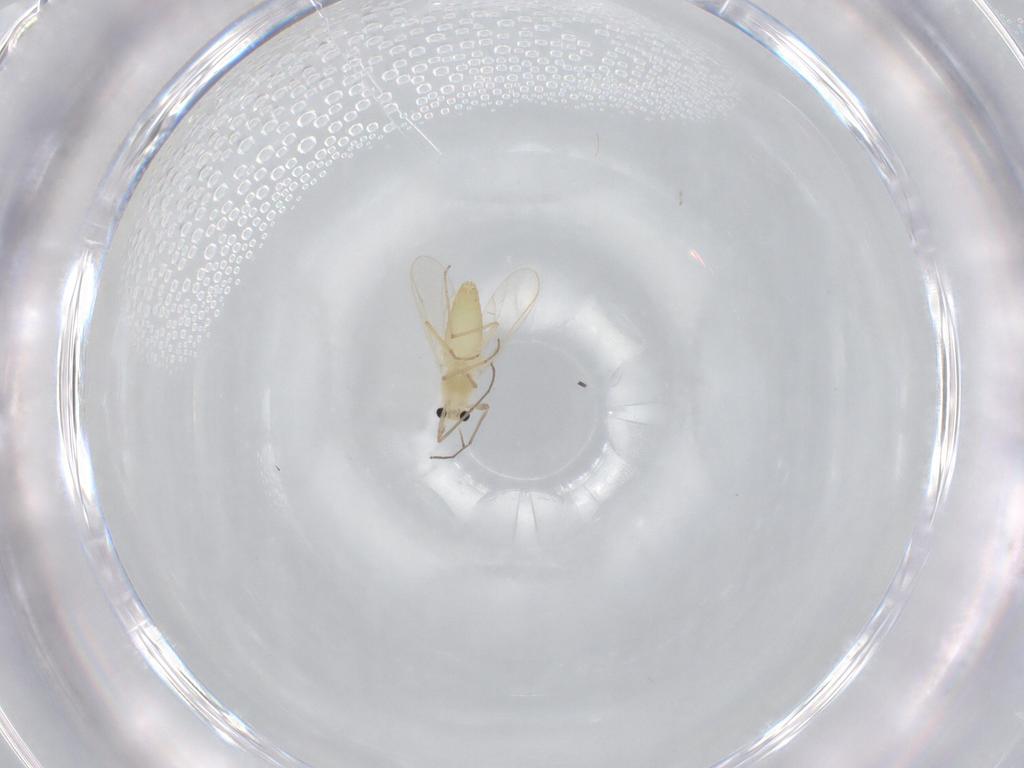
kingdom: Animalia
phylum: Arthropoda
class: Insecta
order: Diptera
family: Chironomidae
